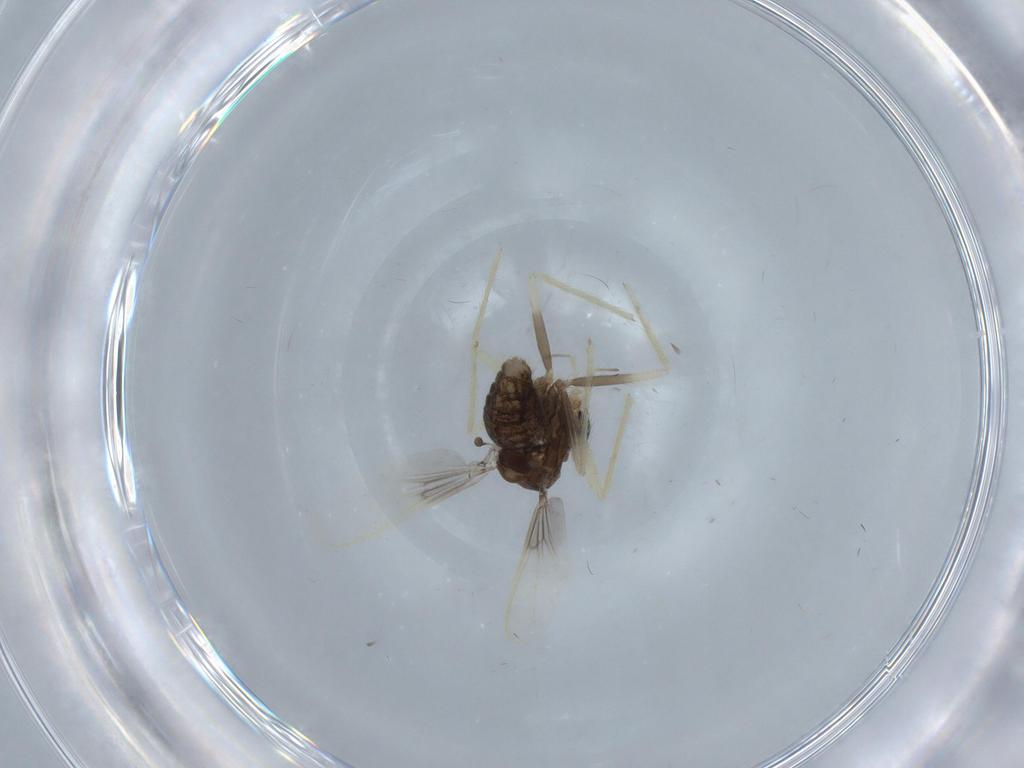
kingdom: Animalia
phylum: Arthropoda
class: Insecta
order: Diptera
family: Chironomidae
